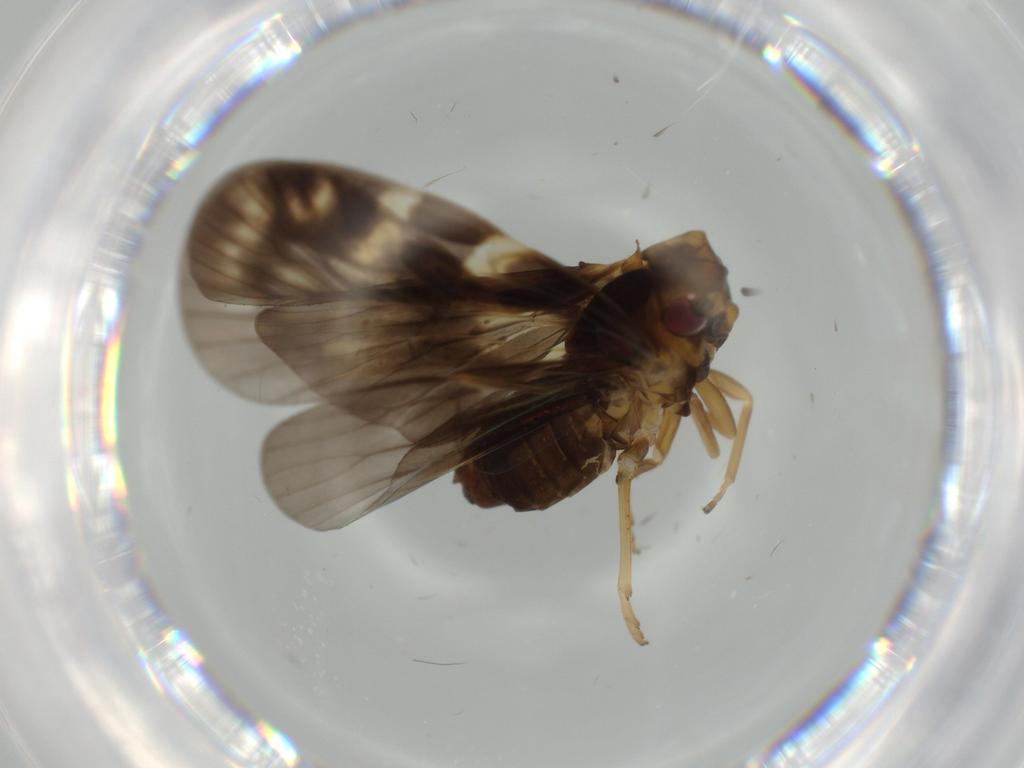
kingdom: Animalia
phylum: Arthropoda
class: Insecta
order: Hemiptera
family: Cixiidae
